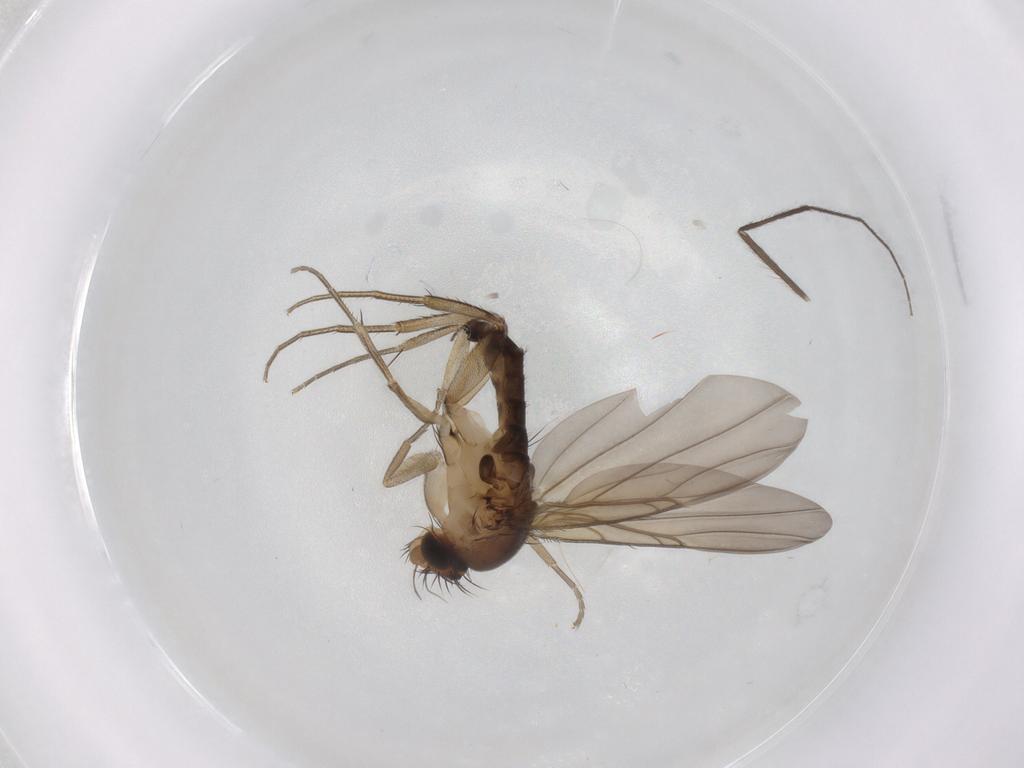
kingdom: Animalia
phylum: Arthropoda
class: Insecta
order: Diptera
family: Phoridae
